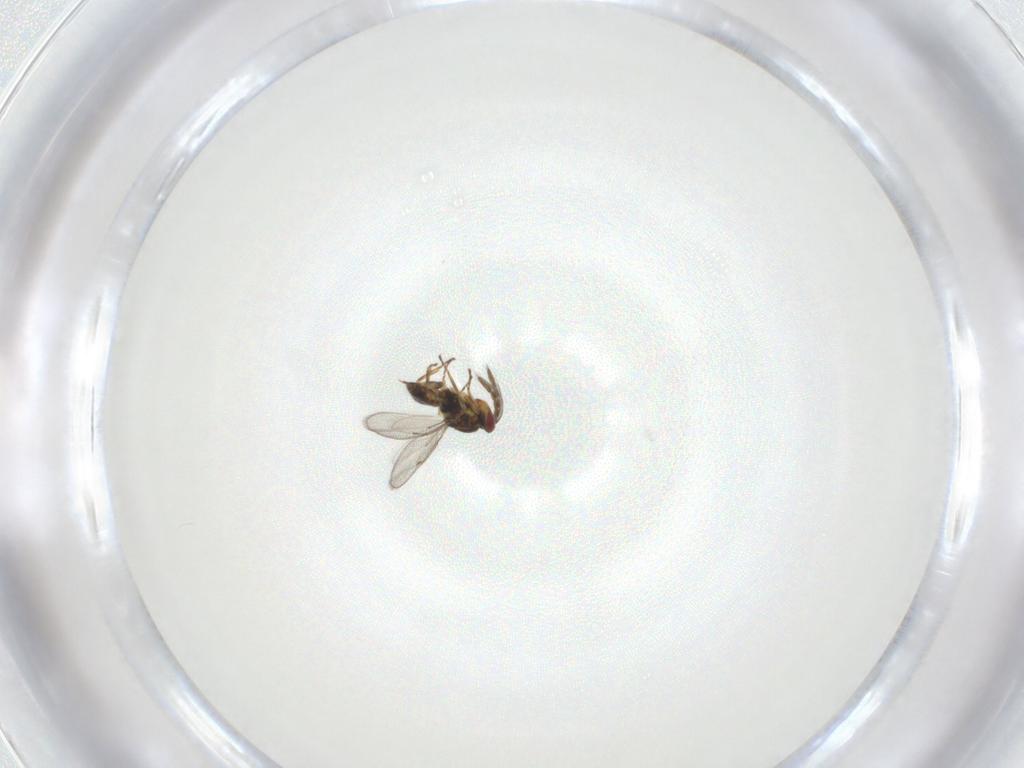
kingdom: Animalia
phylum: Arthropoda
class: Insecta
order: Hymenoptera
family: Eulophidae
